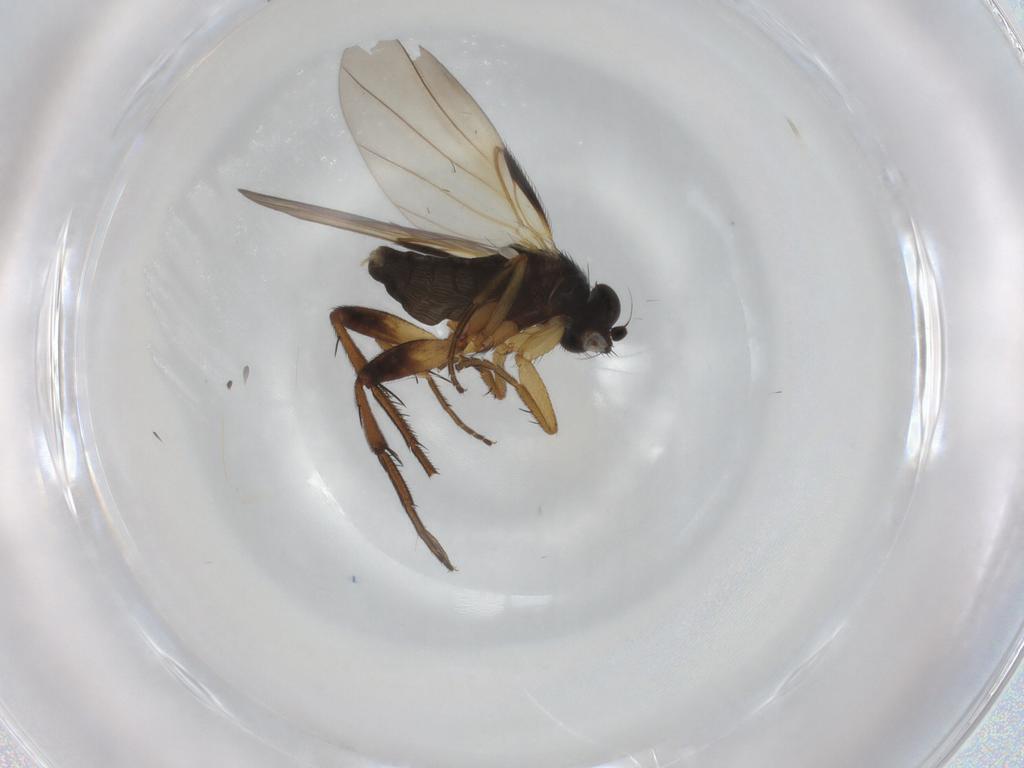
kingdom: Animalia
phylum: Arthropoda
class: Insecta
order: Diptera
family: Phoridae
